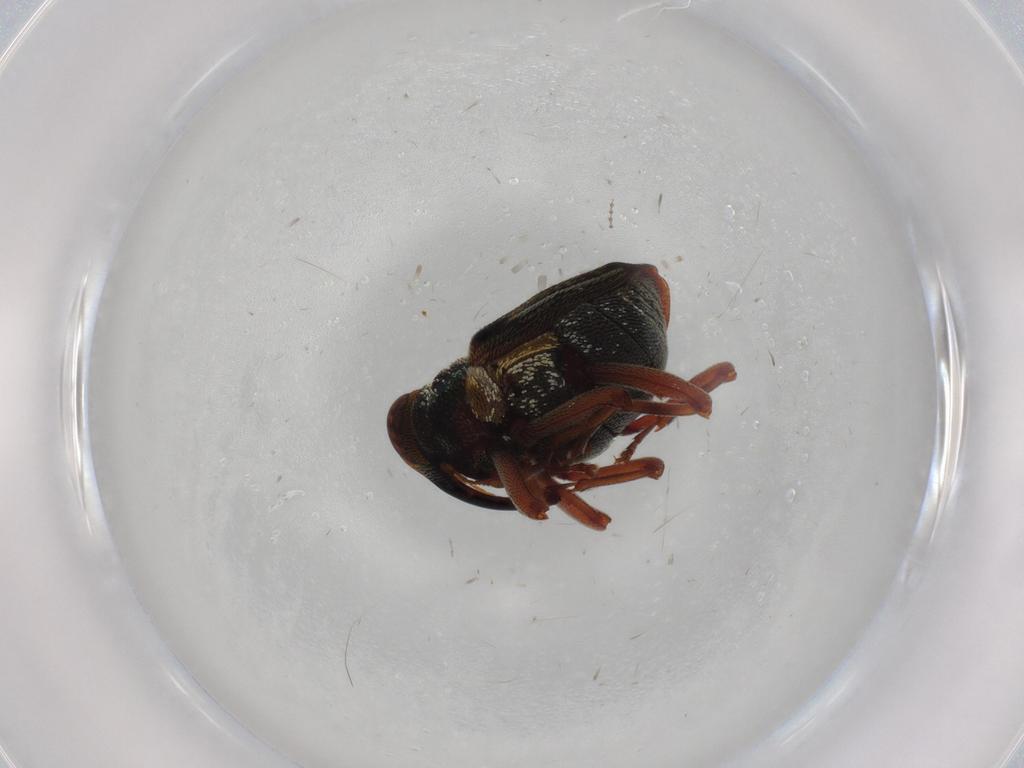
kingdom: Animalia
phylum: Arthropoda
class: Insecta
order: Coleoptera
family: Curculionidae
